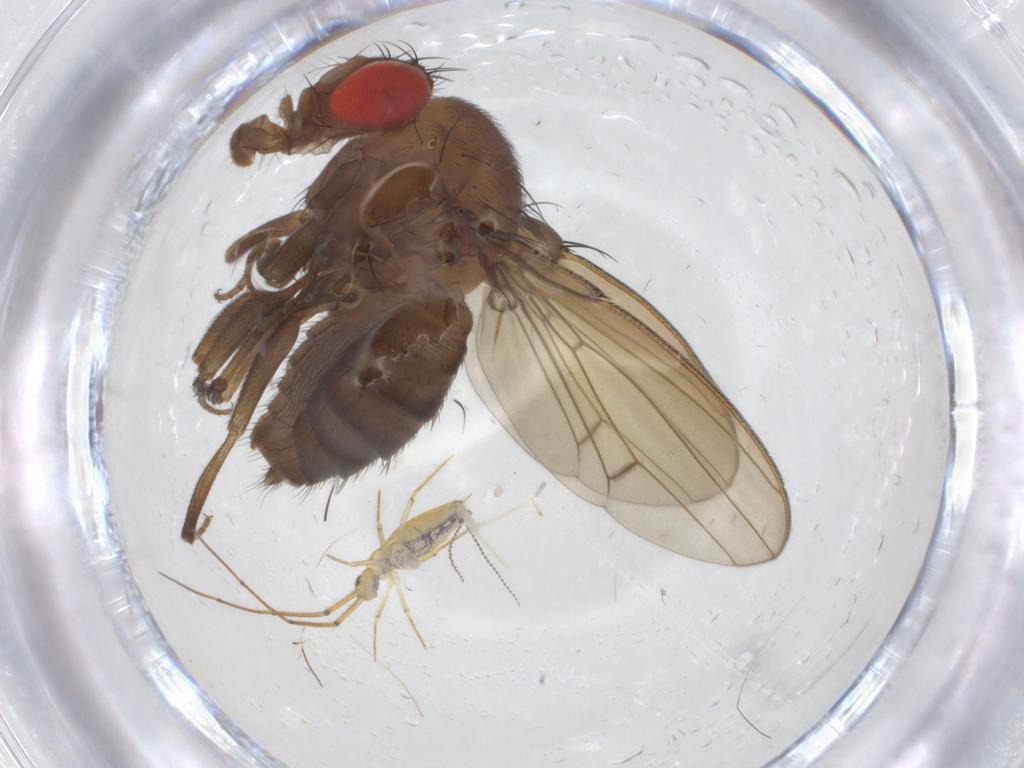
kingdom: Animalia
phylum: Arthropoda
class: Insecta
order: Diptera
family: Drosophilidae
